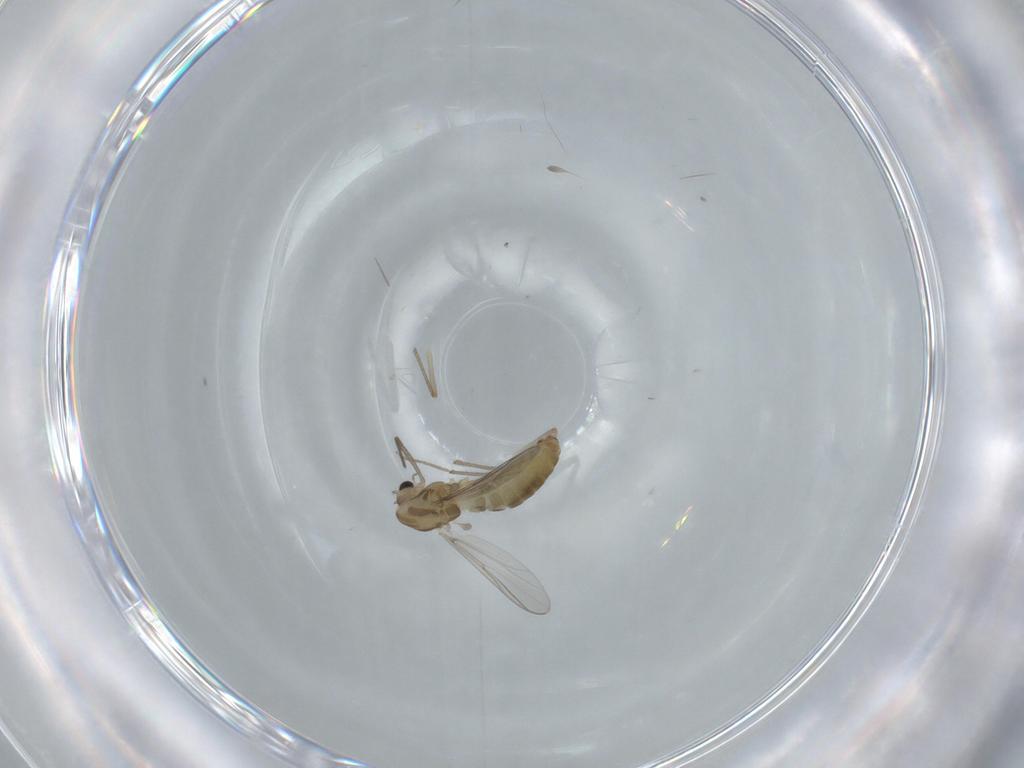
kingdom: Animalia
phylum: Arthropoda
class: Insecta
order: Diptera
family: Chironomidae
